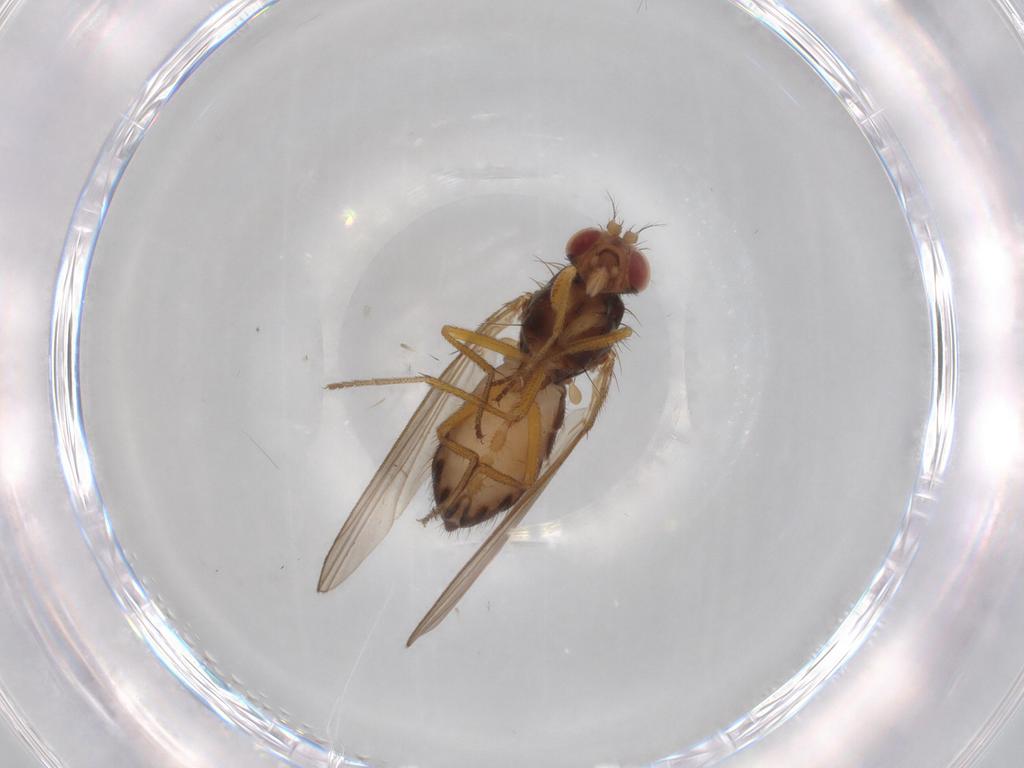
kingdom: Animalia
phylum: Arthropoda
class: Insecta
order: Diptera
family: Drosophilidae
